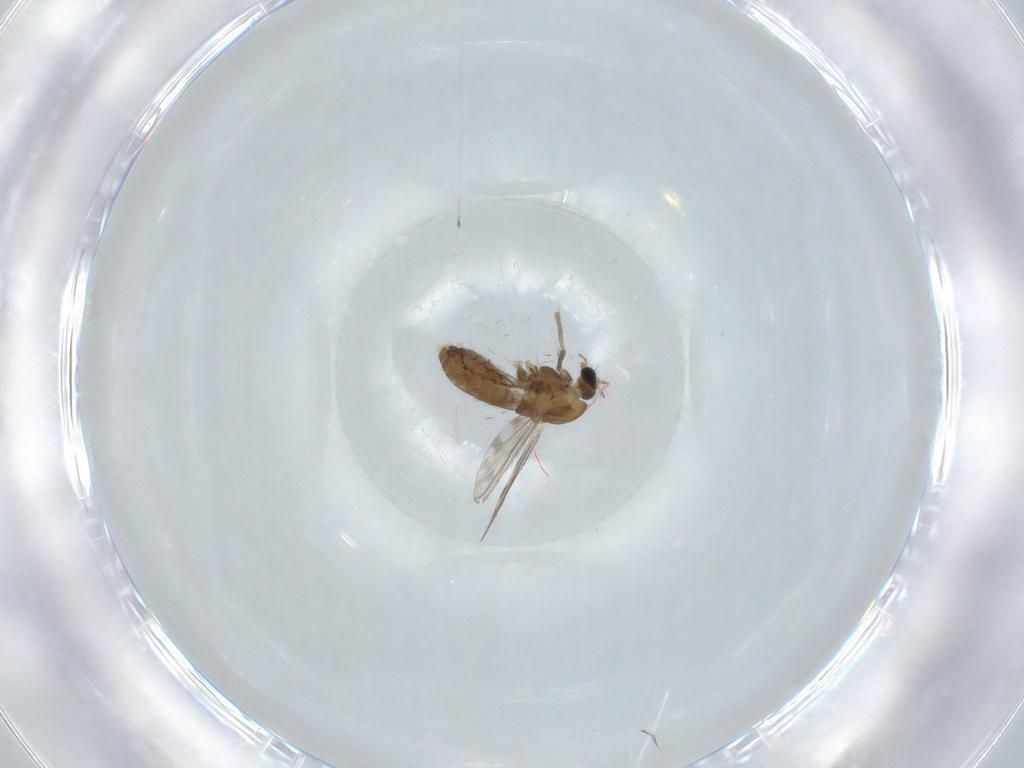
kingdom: Animalia
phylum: Arthropoda
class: Insecta
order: Diptera
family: Chironomidae
